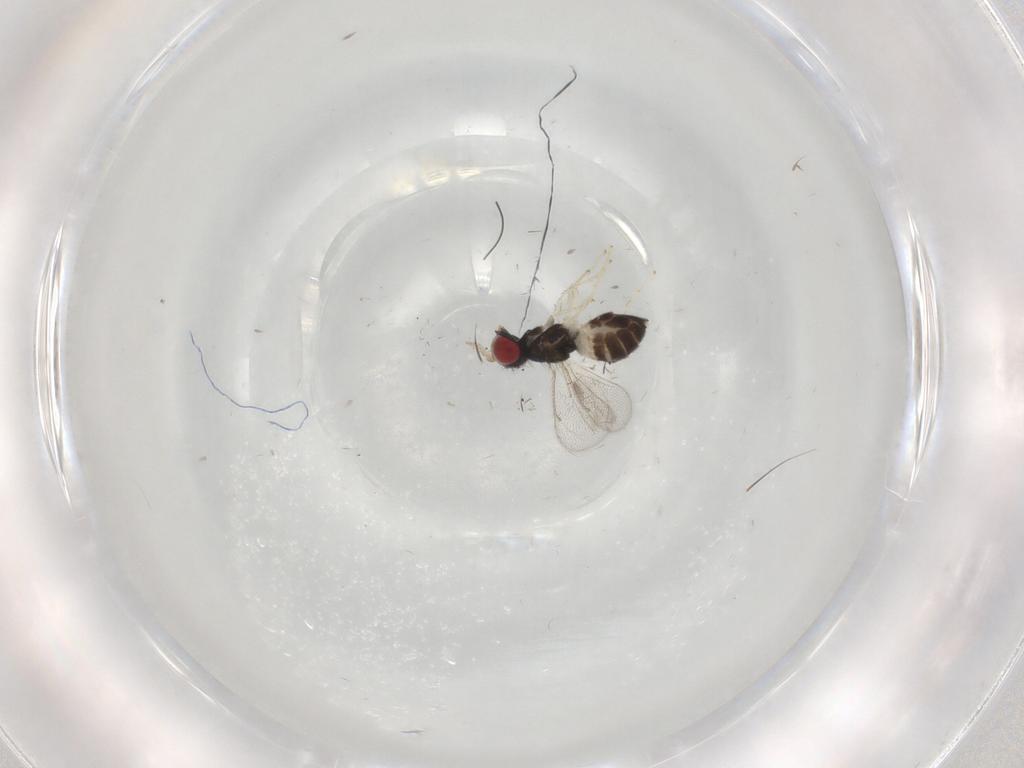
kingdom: Animalia
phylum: Arthropoda
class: Insecta
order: Hymenoptera
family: Eulophidae
